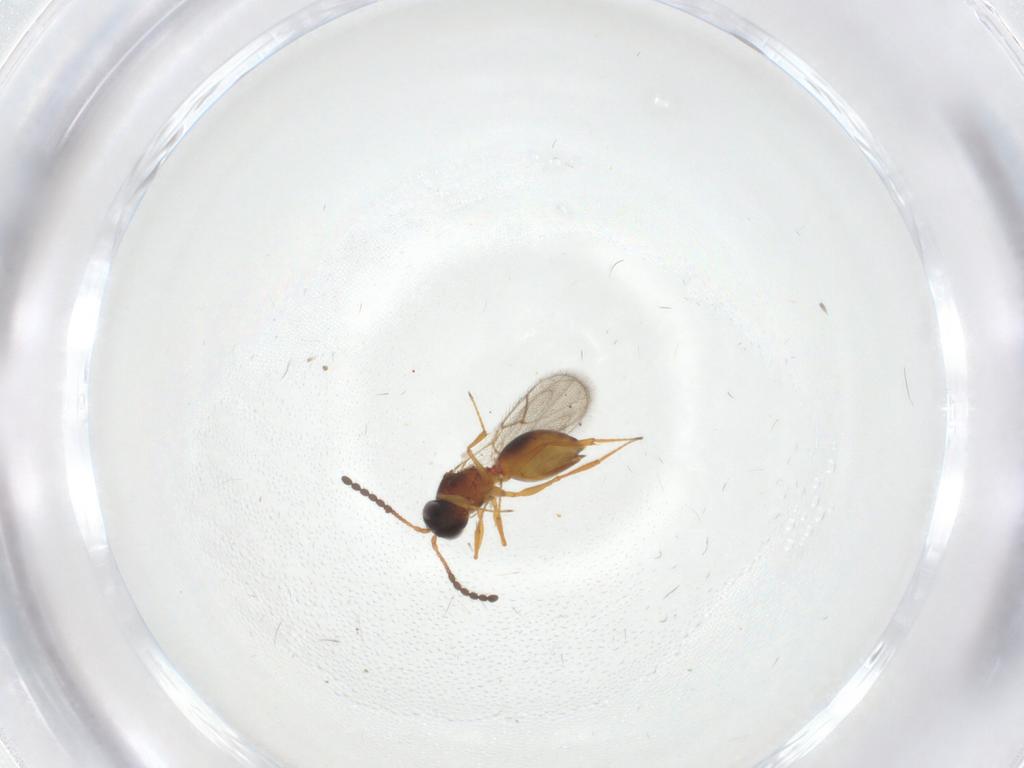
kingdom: Animalia
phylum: Arthropoda
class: Insecta
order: Hymenoptera
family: Figitidae
